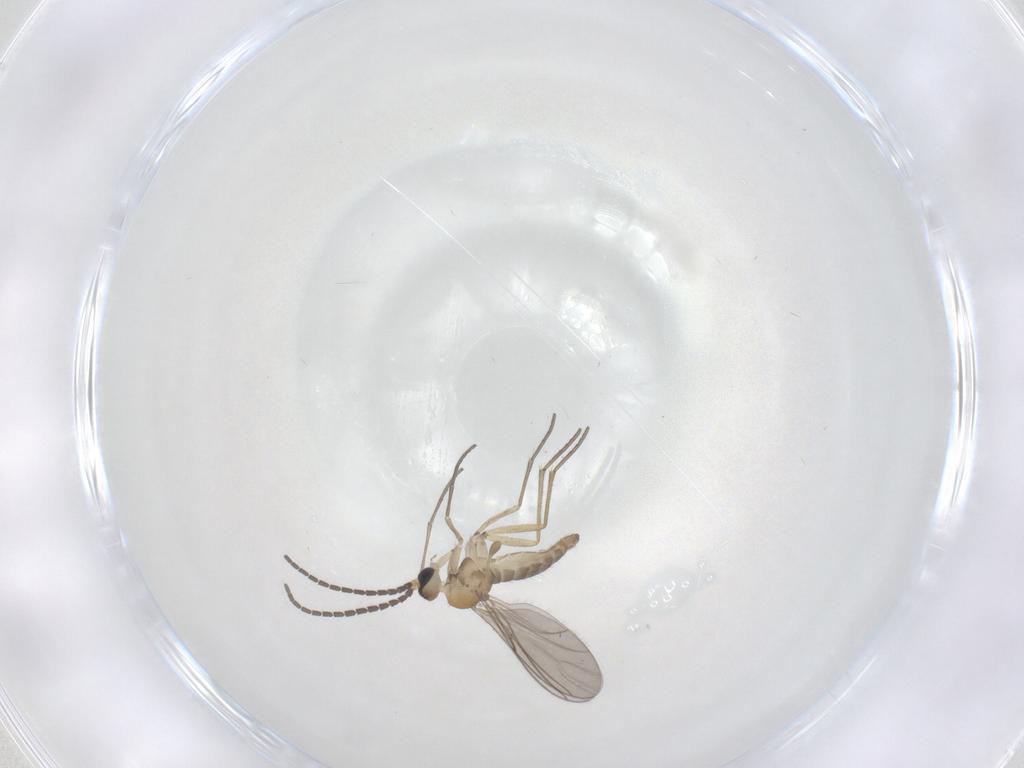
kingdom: Animalia
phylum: Arthropoda
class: Insecta
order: Diptera
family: Sciaridae
